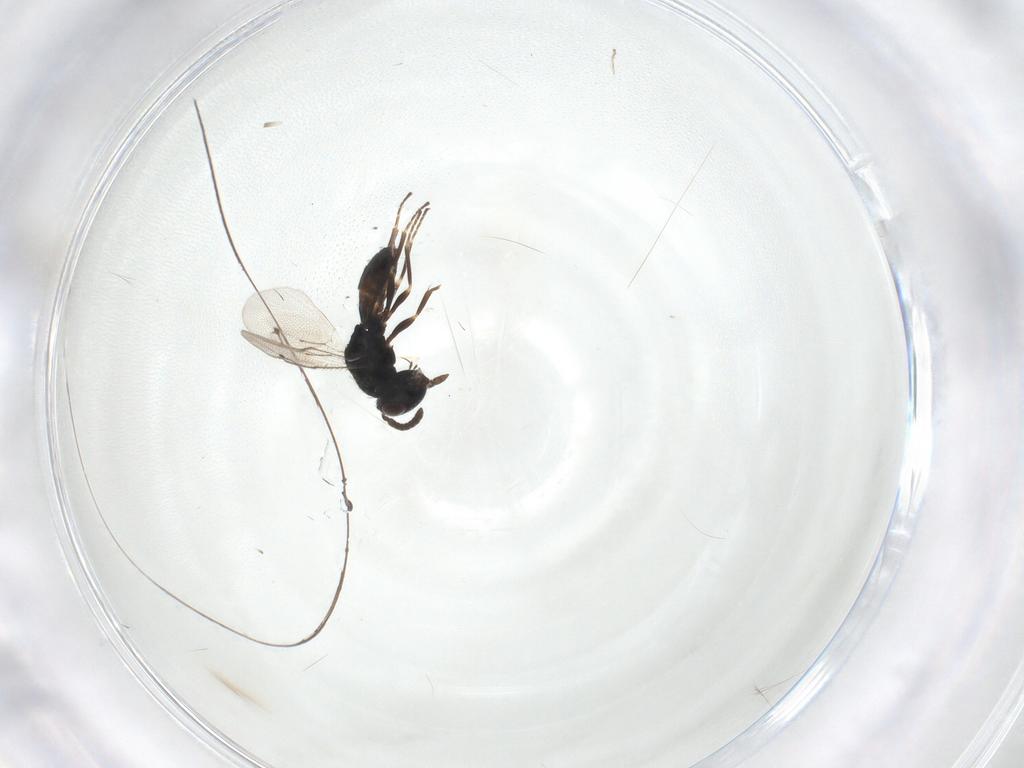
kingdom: Animalia
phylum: Arthropoda
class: Insecta
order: Hymenoptera
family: Pteromalidae
